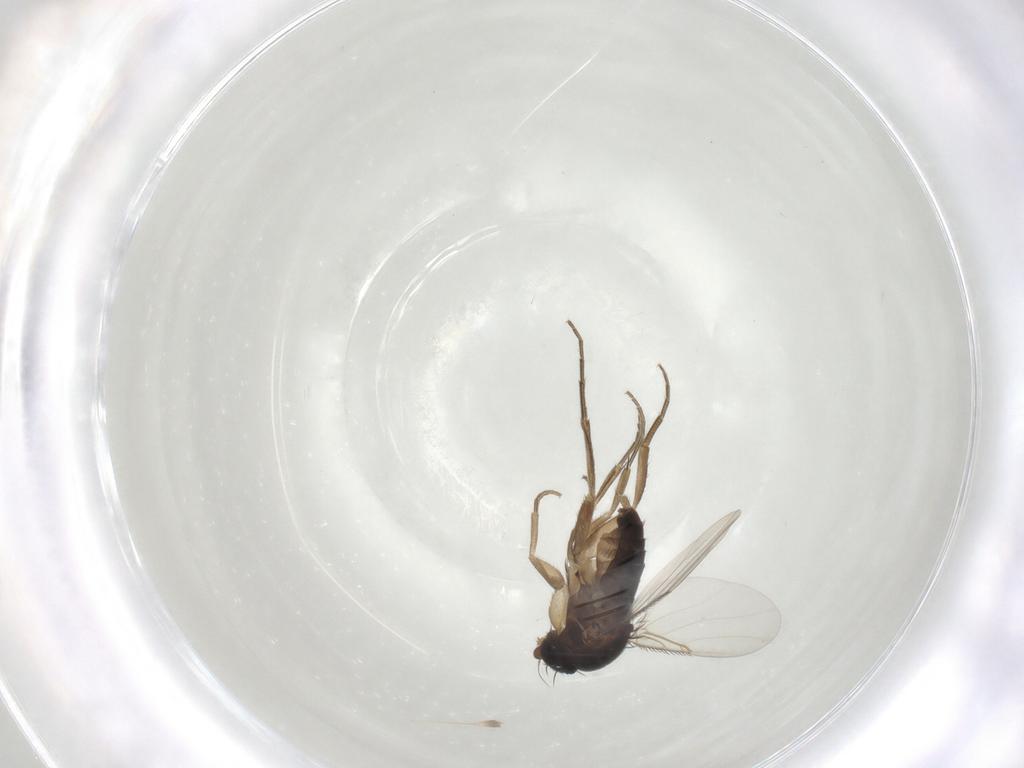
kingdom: Animalia
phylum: Arthropoda
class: Insecta
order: Diptera
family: Phoridae
